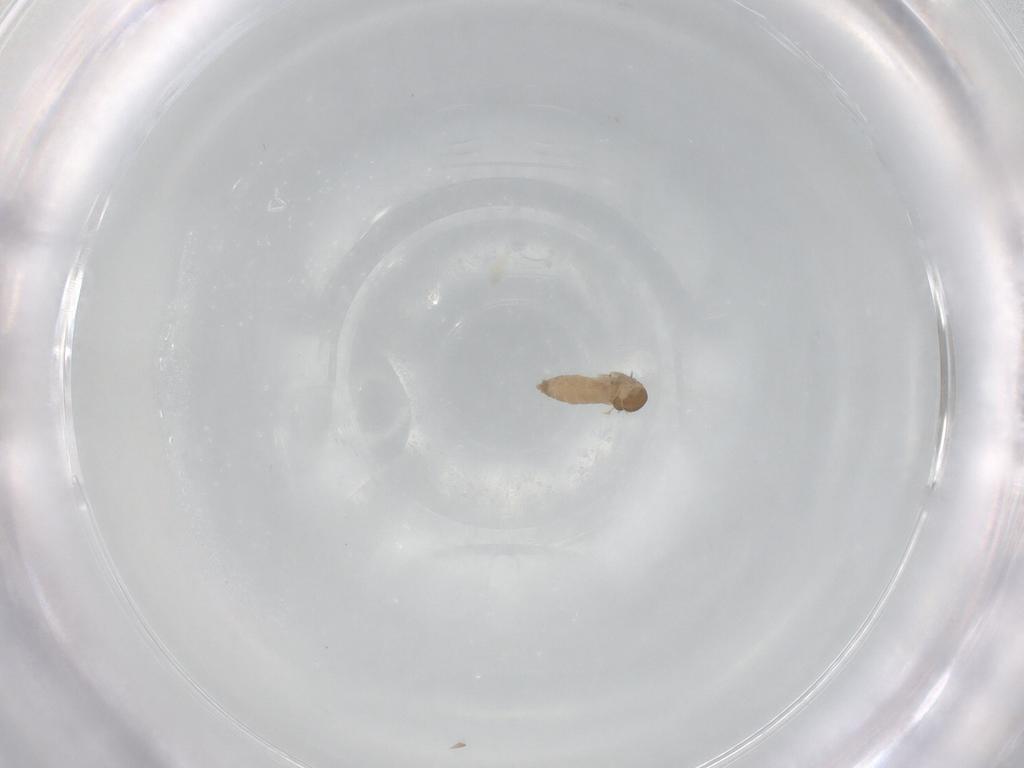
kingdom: Animalia
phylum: Arthropoda
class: Insecta
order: Diptera
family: Cecidomyiidae
